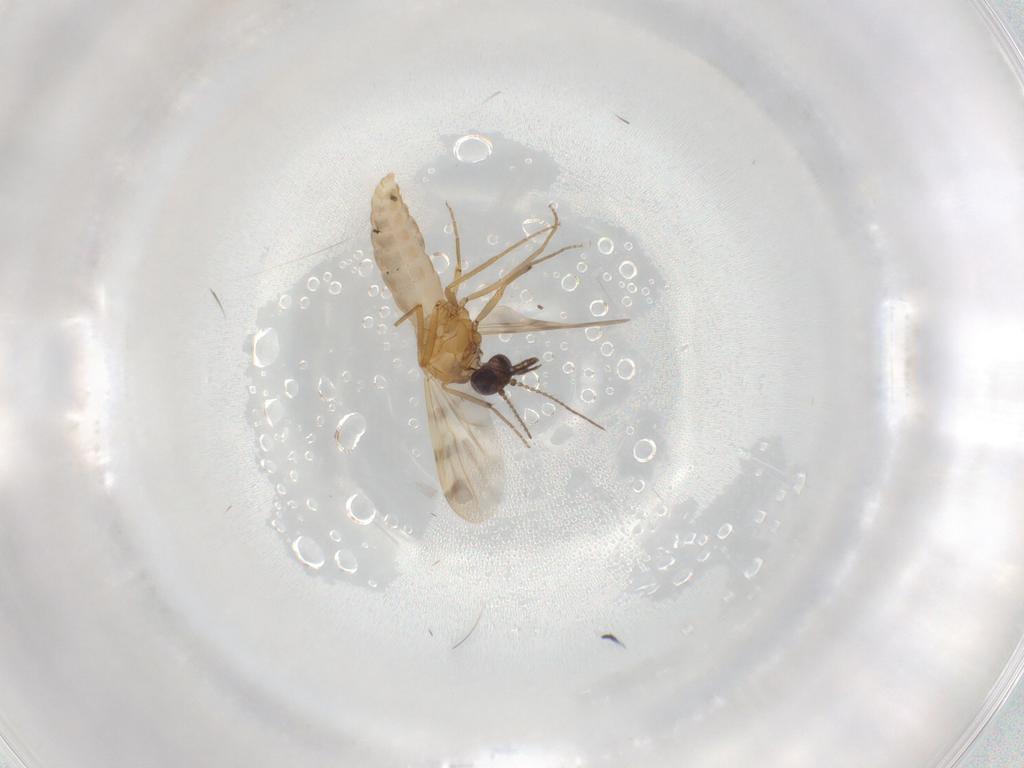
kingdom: Animalia
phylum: Arthropoda
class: Insecta
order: Diptera
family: Ceratopogonidae
